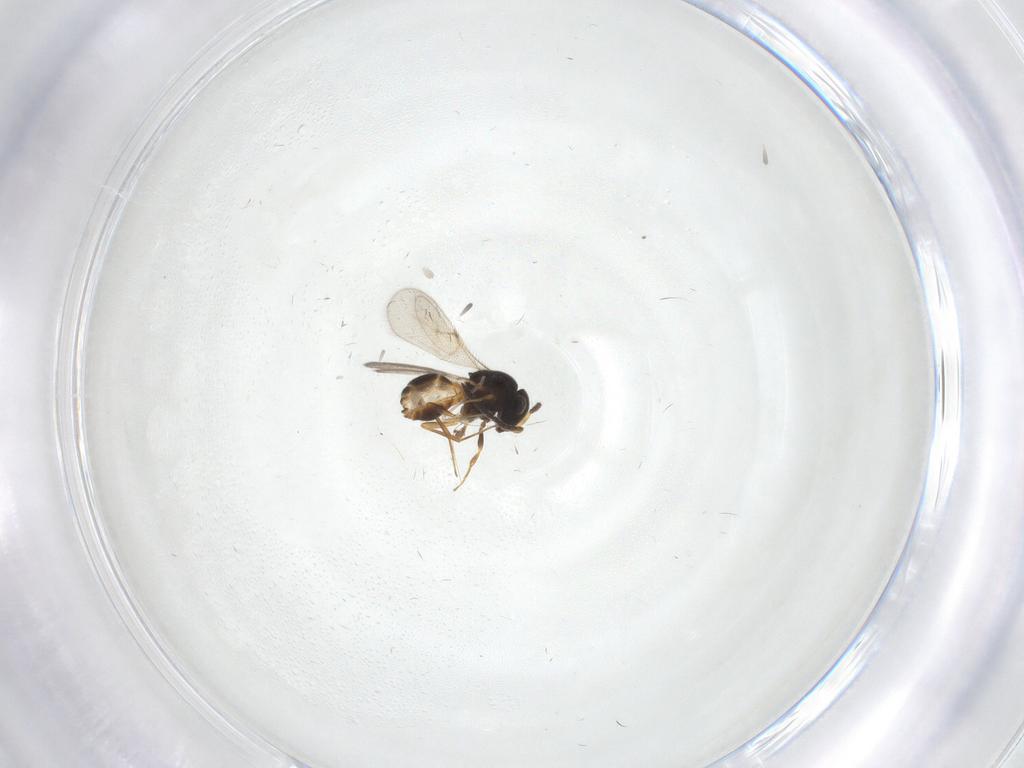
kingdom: Animalia
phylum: Arthropoda
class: Insecta
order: Hymenoptera
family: Scelionidae
